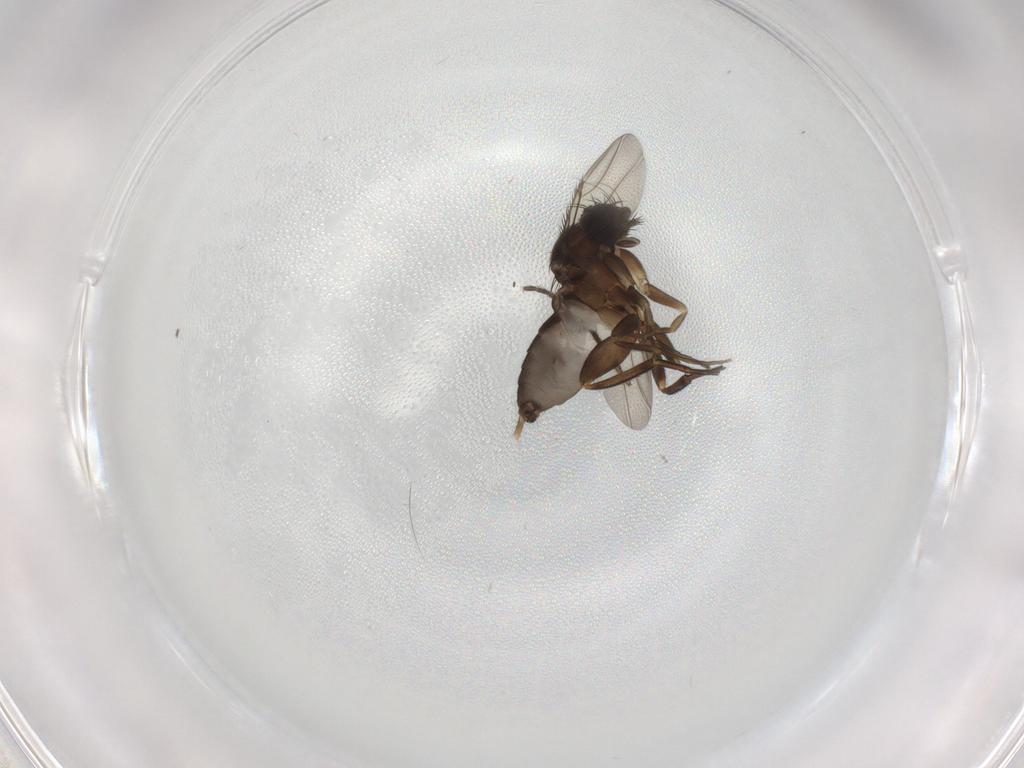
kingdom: Animalia
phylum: Arthropoda
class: Insecta
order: Diptera
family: Phoridae
